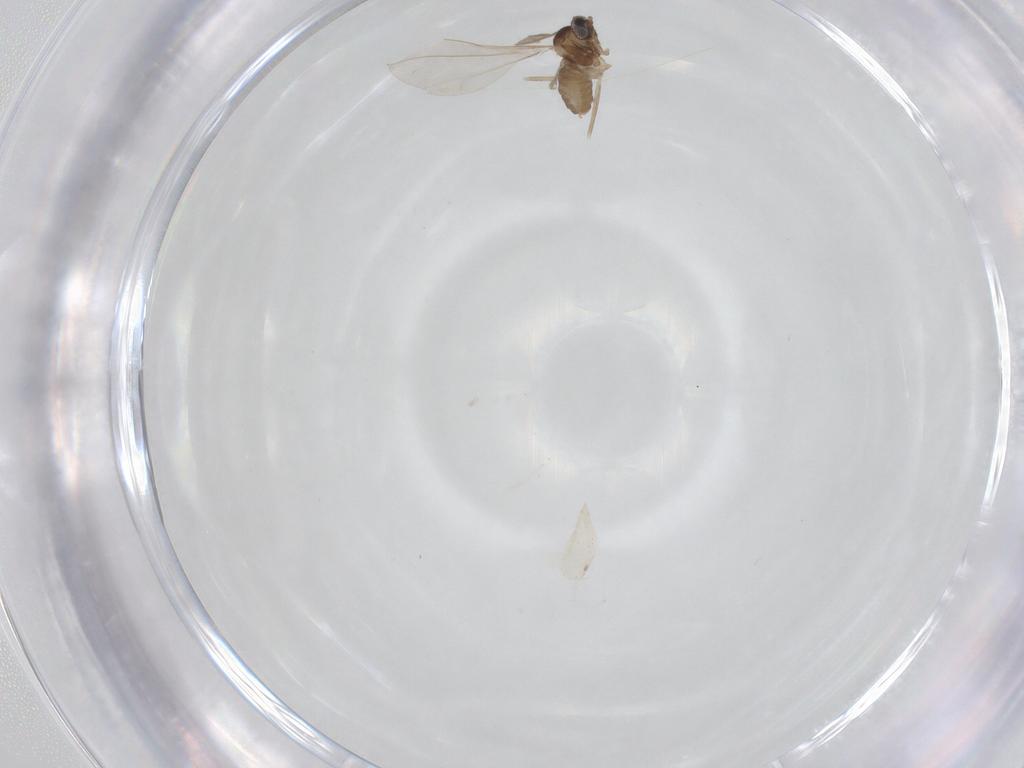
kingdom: Animalia
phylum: Arthropoda
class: Insecta
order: Diptera
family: Cecidomyiidae
